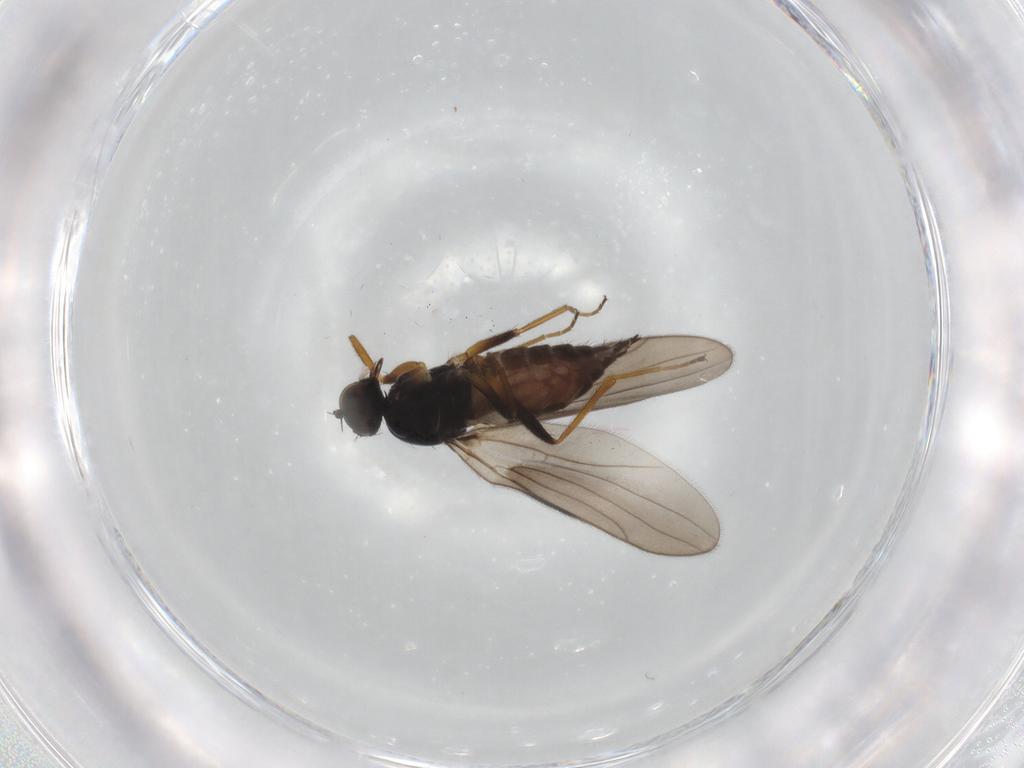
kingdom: Animalia
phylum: Arthropoda
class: Insecta
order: Diptera
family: Hybotidae
